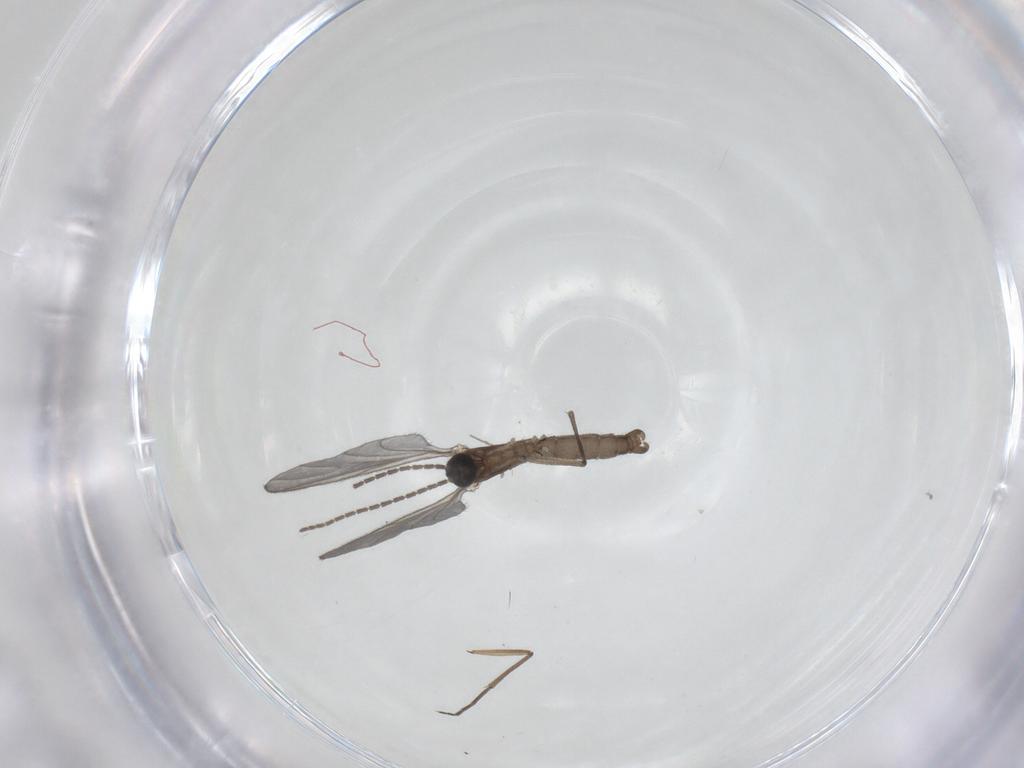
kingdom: Animalia
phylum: Arthropoda
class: Insecta
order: Diptera
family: Sciaridae
